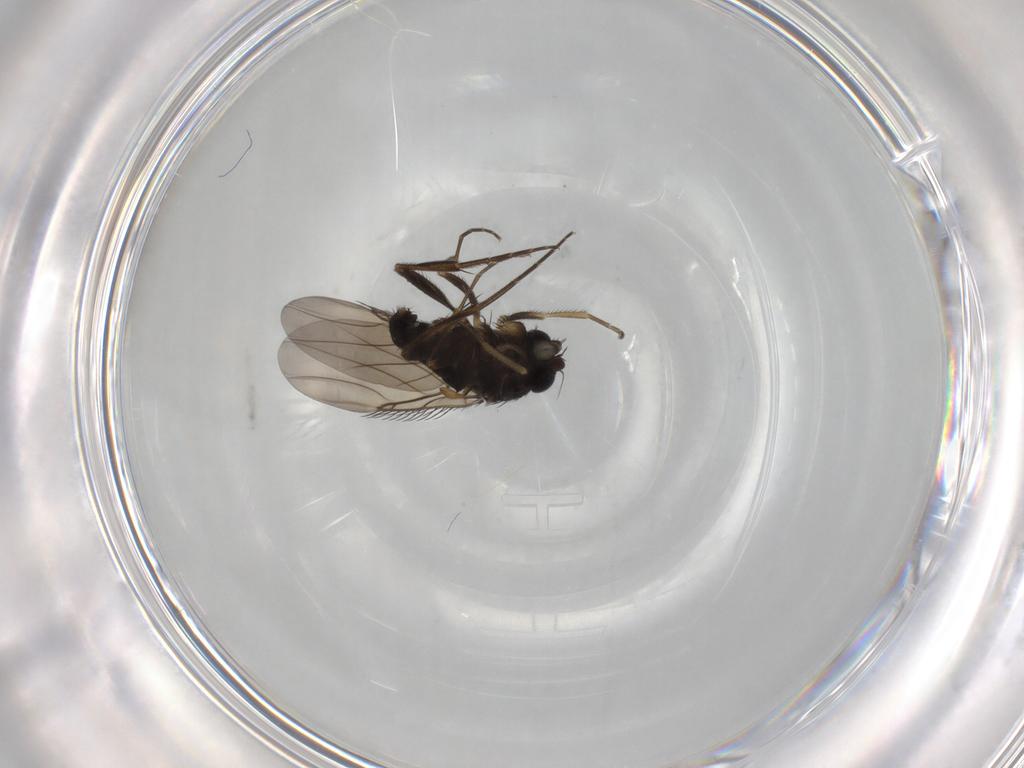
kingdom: Animalia
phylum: Arthropoda
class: Insecta
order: Diptera
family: Phoridae
